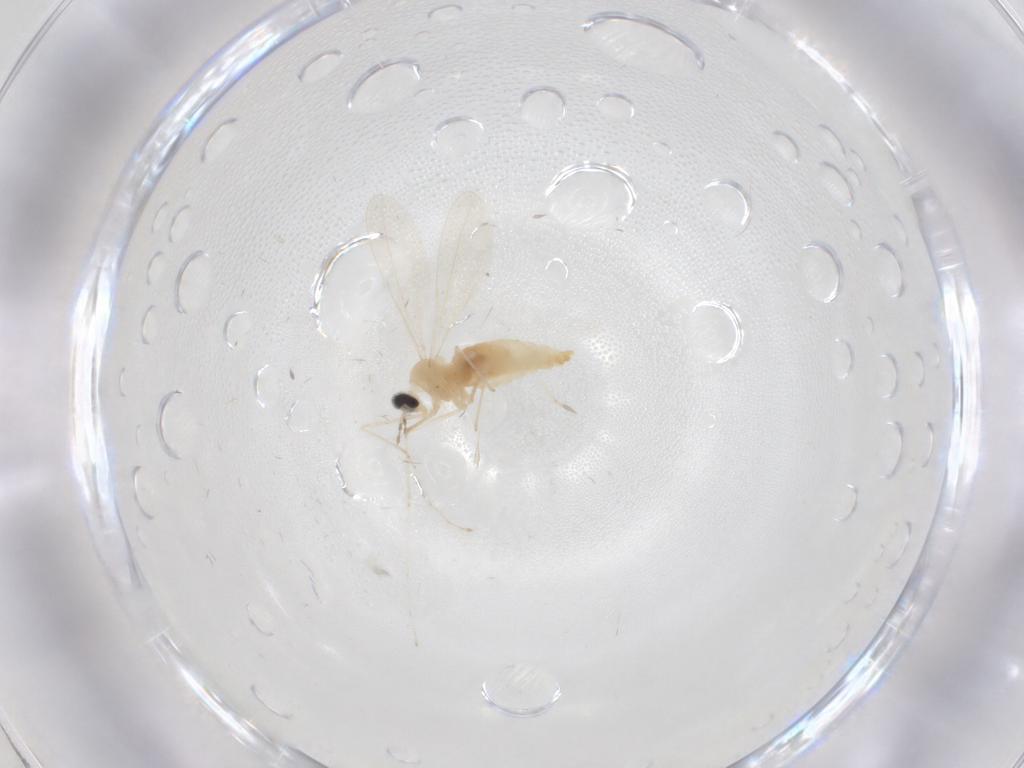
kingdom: Animalia
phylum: Arthropoda
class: Insecta
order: Diptera
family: Cecidomyiidae
